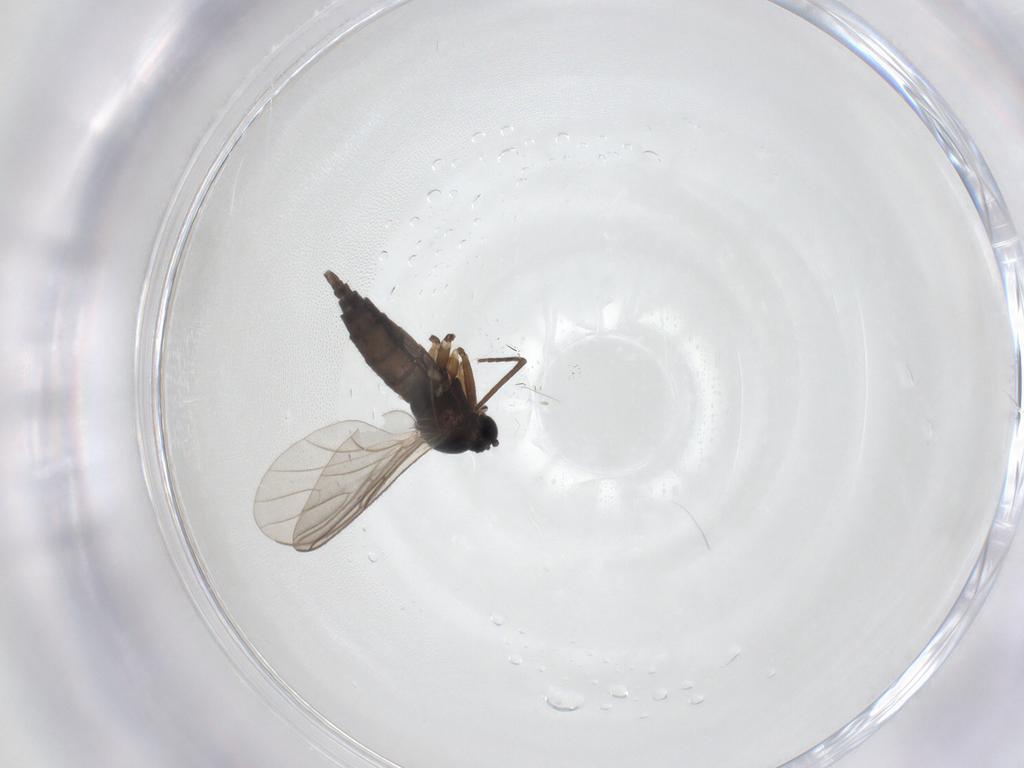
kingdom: Animalia
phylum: Arthropoda
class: Insecta
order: Diptera
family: Sciaridae
